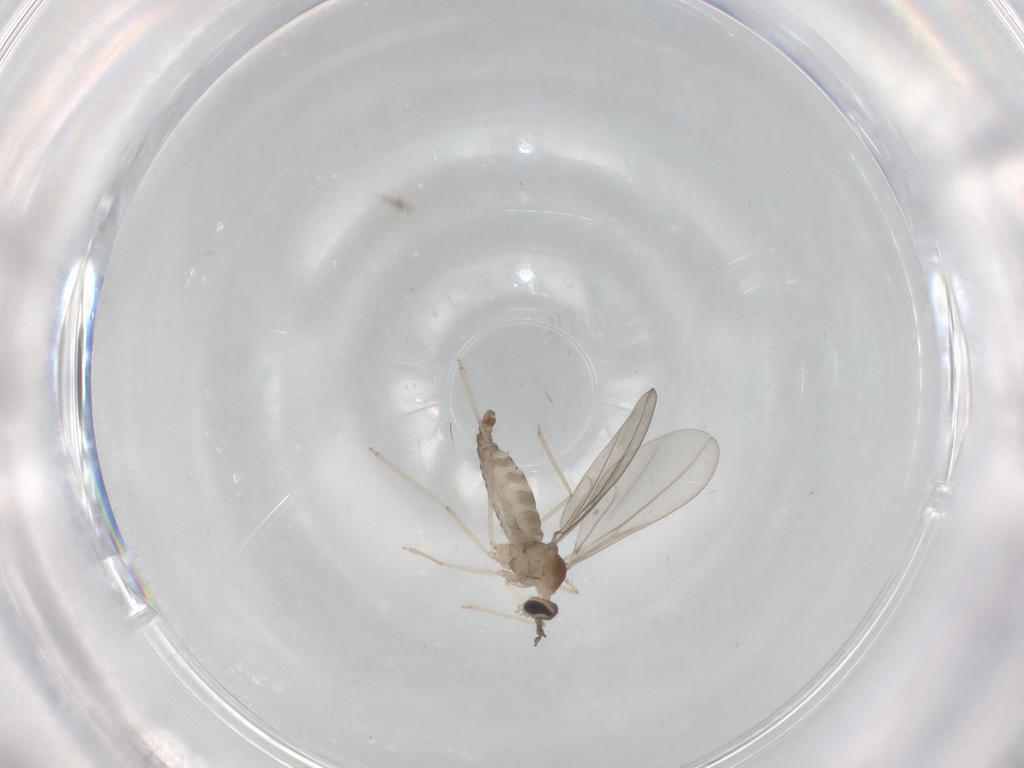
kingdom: Animalia
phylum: Arthropoda
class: Insecta
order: Diptera
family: Cecidomyiidae
